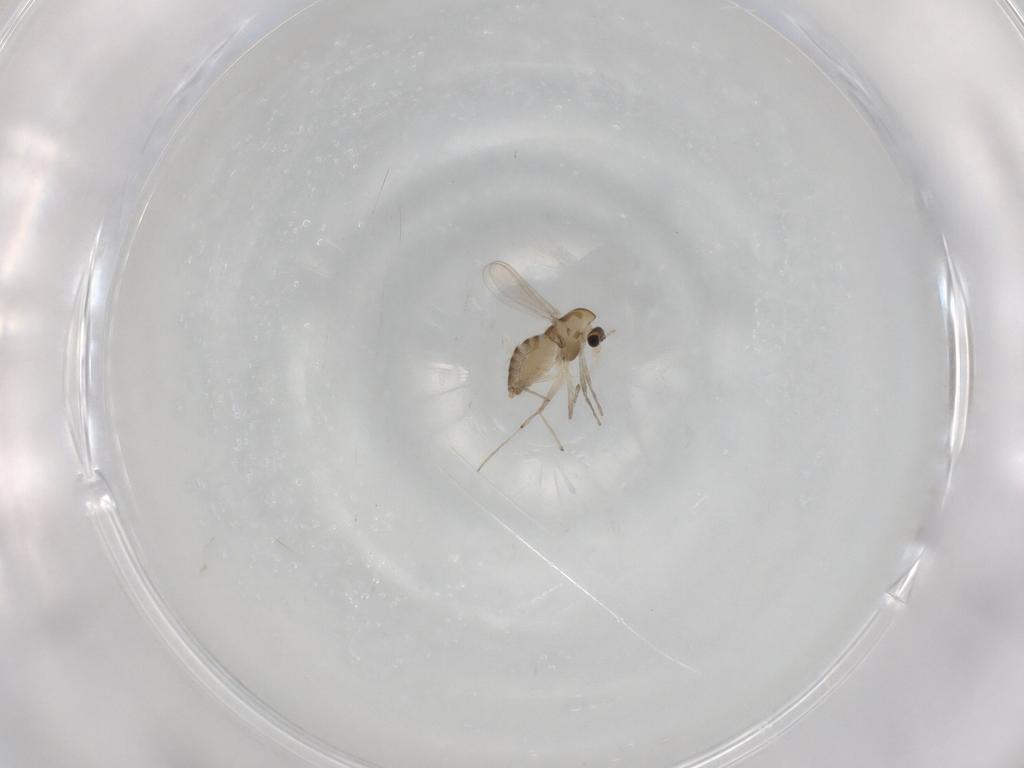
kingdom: Animalia
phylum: Arthropoda
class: Insecta
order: Diptera
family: Chironomidae
